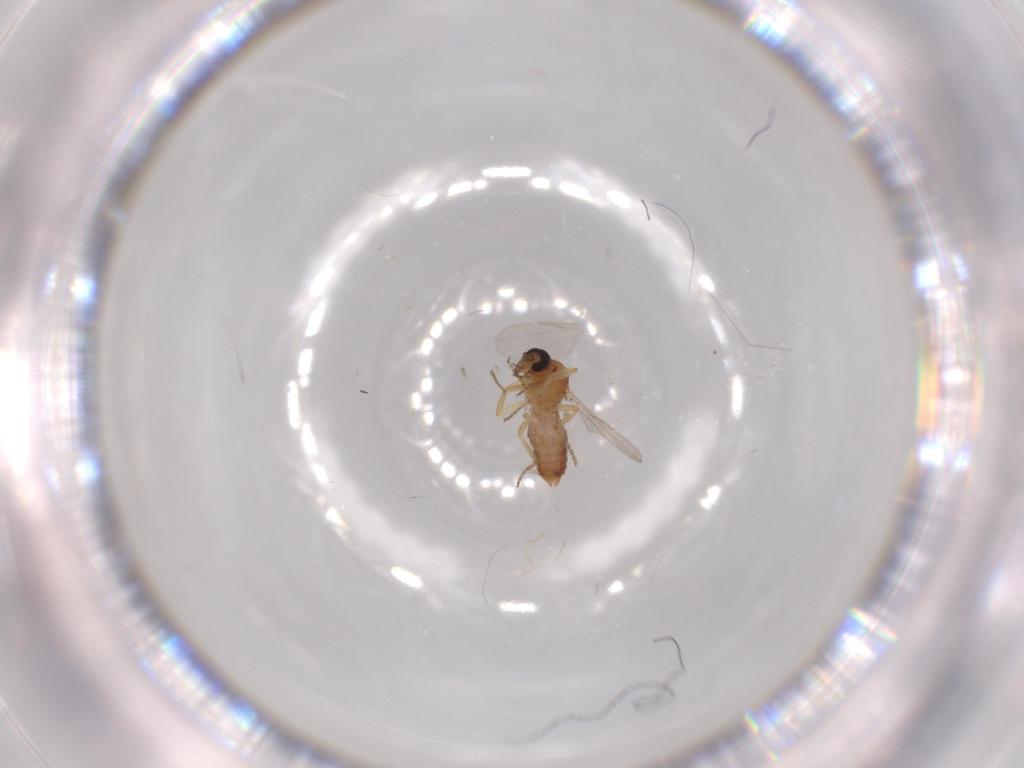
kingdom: Animalia
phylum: Arthropoda
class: Insecta
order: Diptera
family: Ceratopogonidae
